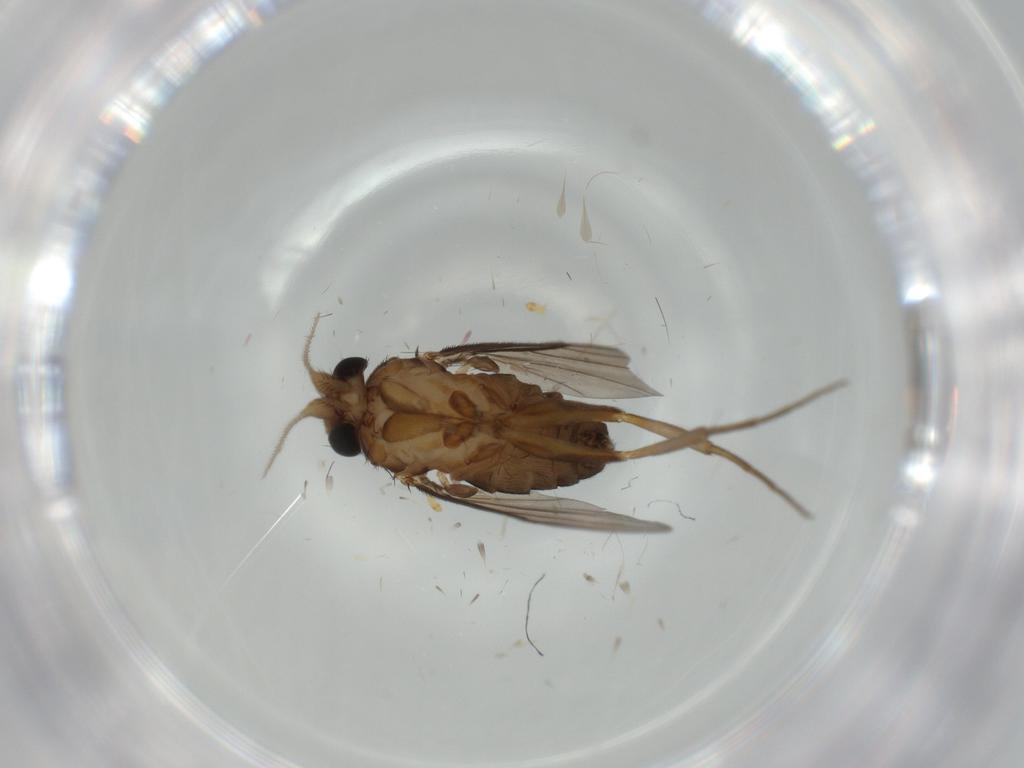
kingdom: Animalia
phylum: Arthropoda
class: Insecta
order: Diptera
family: Sciaridae
